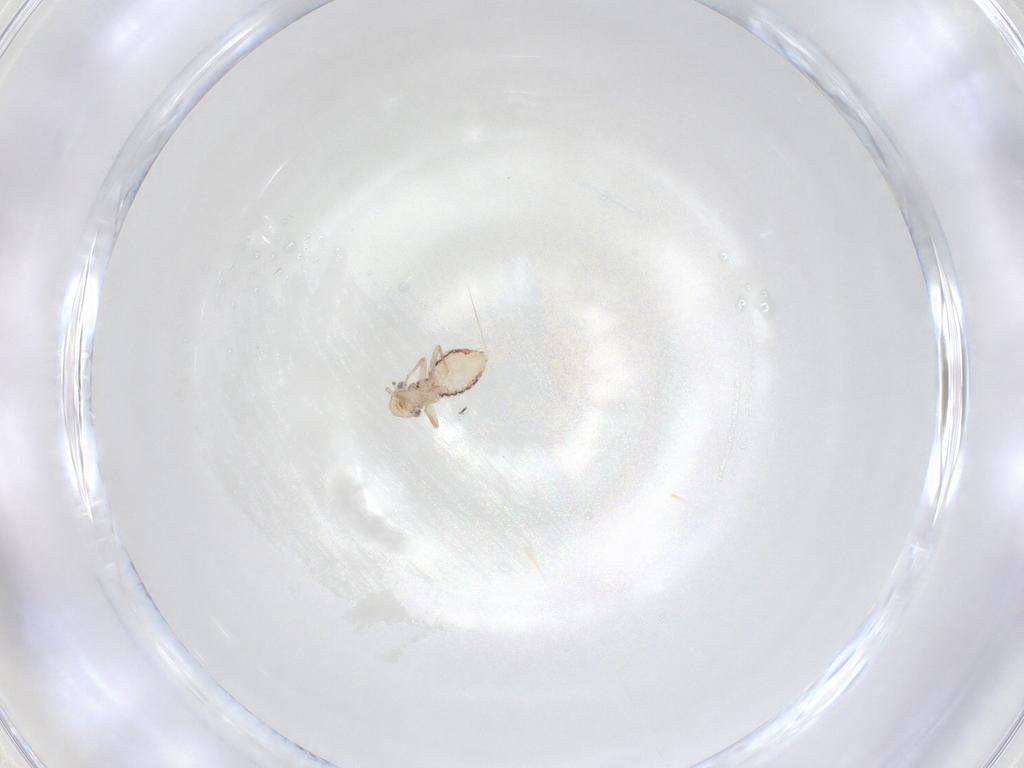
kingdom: Animalia
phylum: Arthropoda
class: Insecta
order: Psocodea
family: Lepidopsocidae
